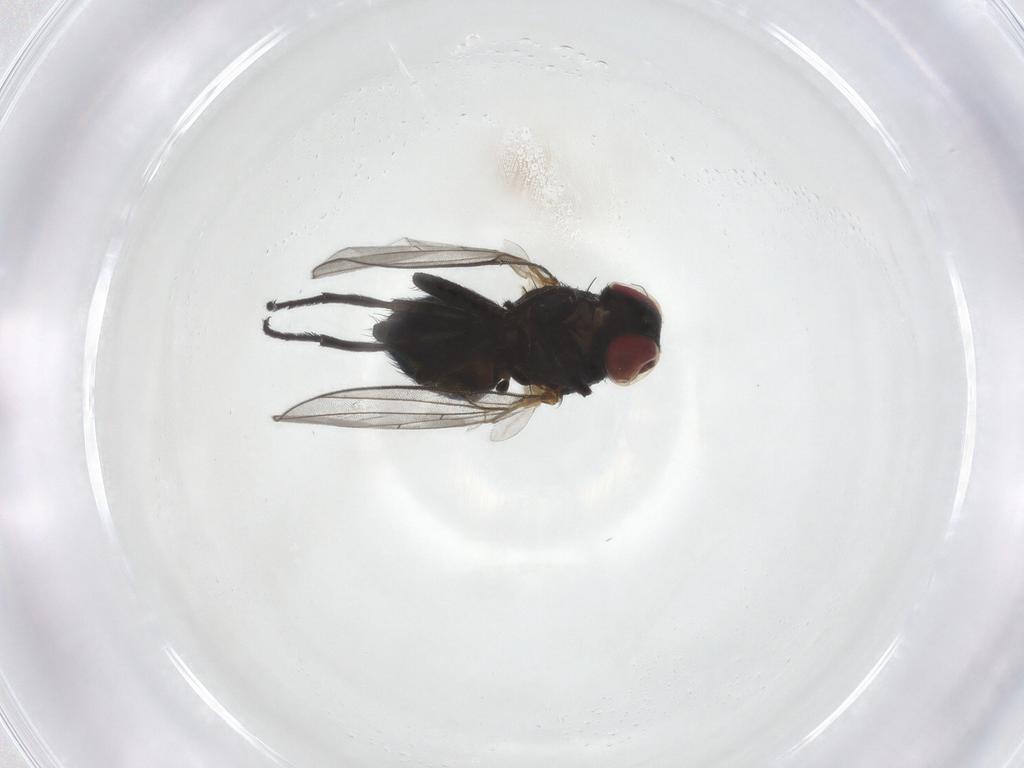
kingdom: Animalia
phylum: Arthropoda
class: Insecta
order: Diptera
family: Agromyzidae
